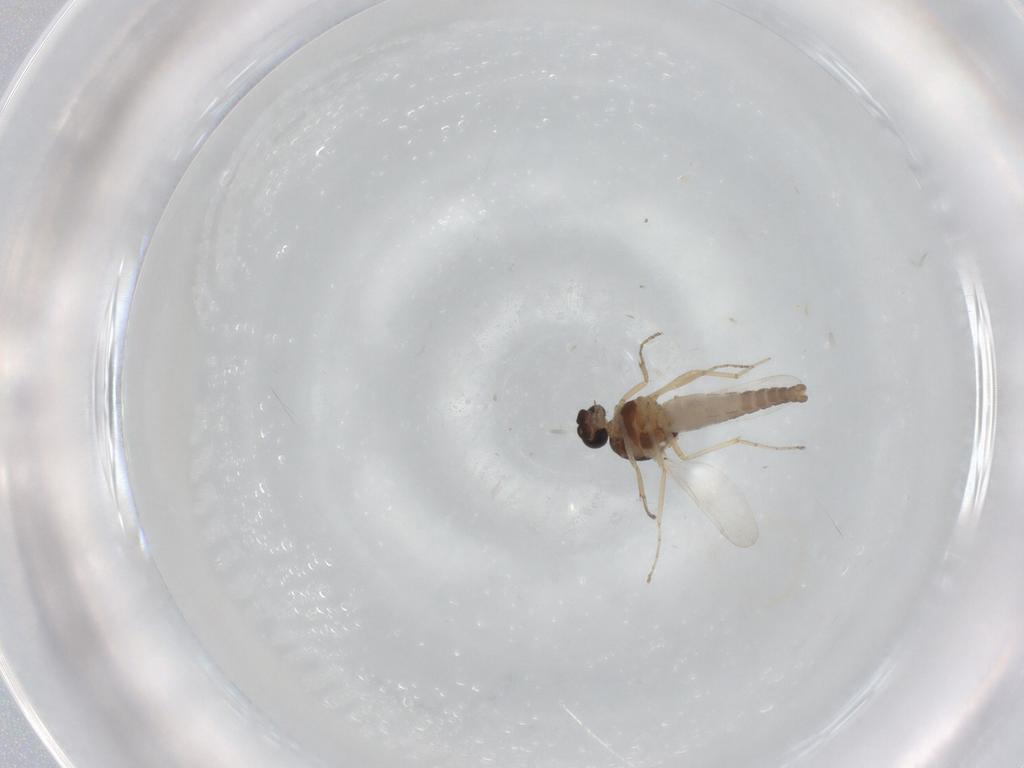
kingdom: Animalia
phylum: Arthropoda
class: Insecta
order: Diptera
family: Ceratopogonidae
